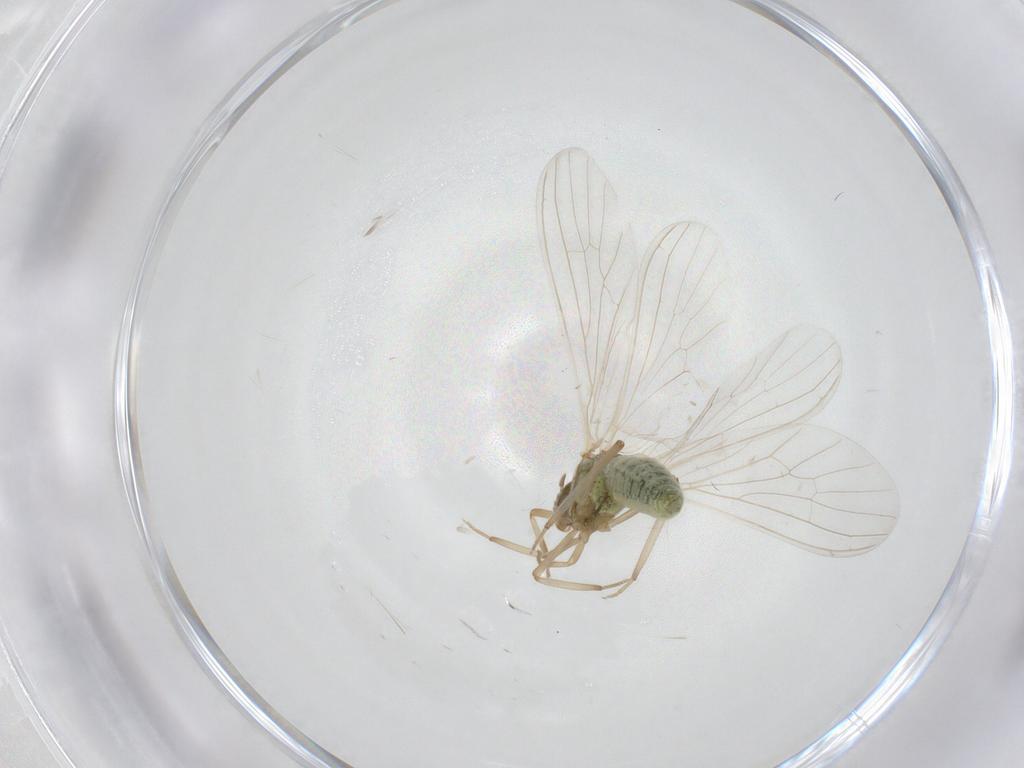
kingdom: Animalia
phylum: Arthropoda
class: Insecta
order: Neuroptera
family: Coniopterygidae
